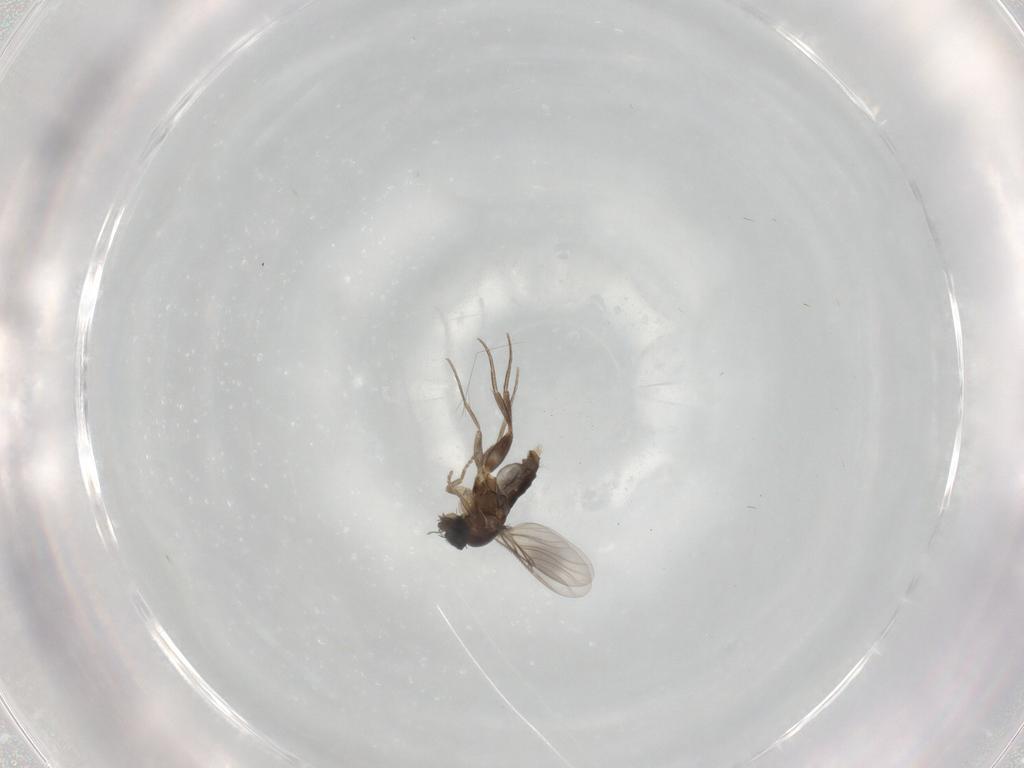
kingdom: Animalia
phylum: Arthropoda
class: Insecta
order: Diptera
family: Phoridae
